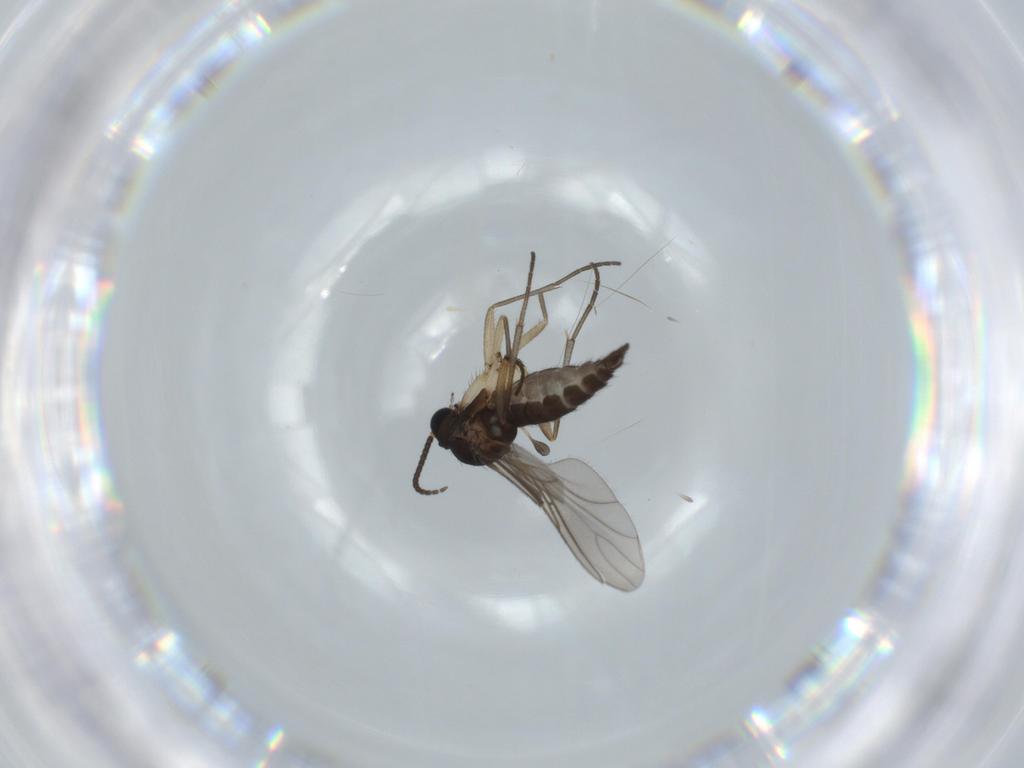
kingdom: Animalia
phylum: Arthropoda
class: Insecta
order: Diptera
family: Sciaridae
